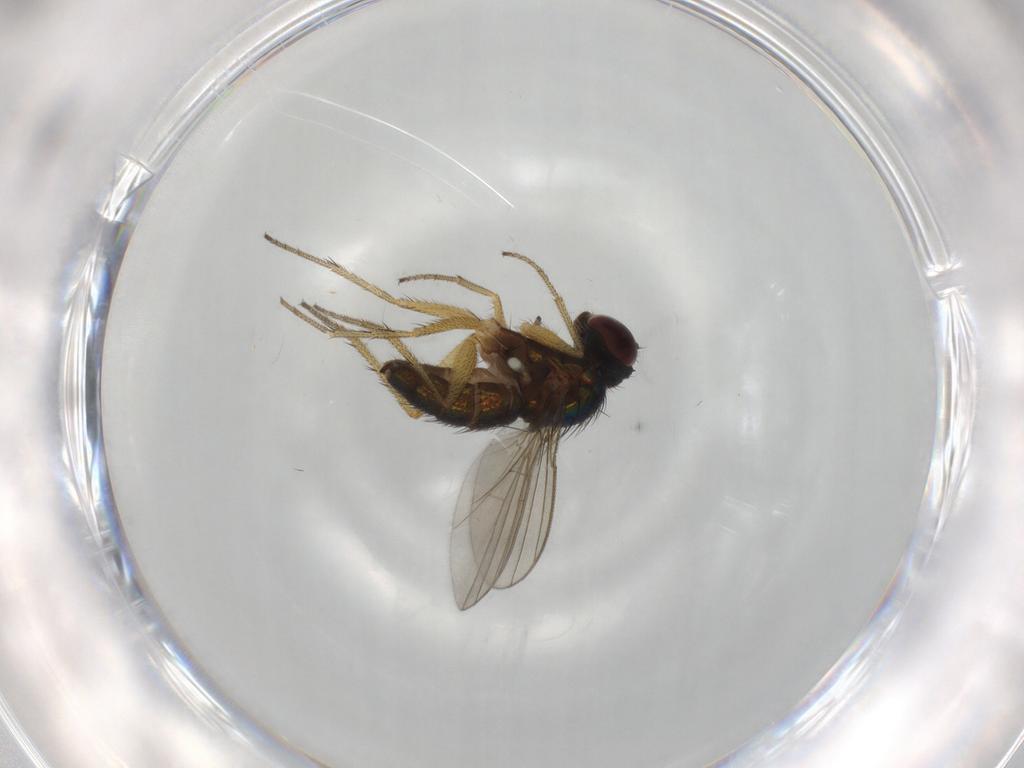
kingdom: Animalia
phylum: Arthropoda
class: Insecta
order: Diptera
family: Dolichopodidae
